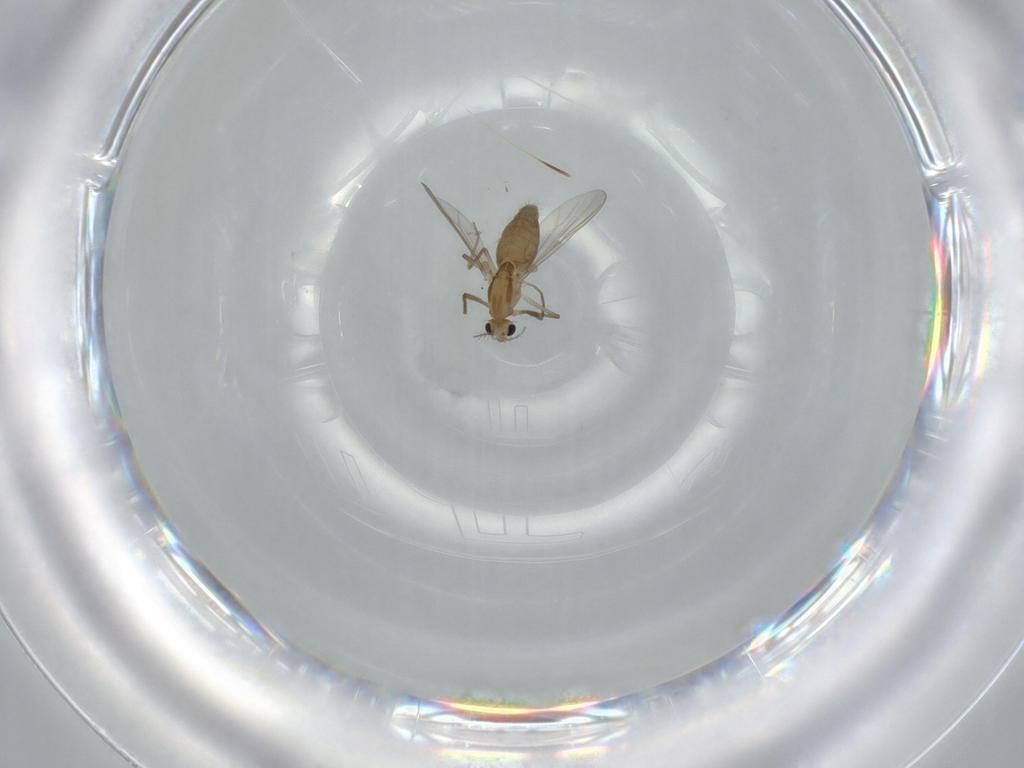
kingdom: Animalia
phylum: Arthropoda
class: Insecta
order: Diptera
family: Chironomidae
